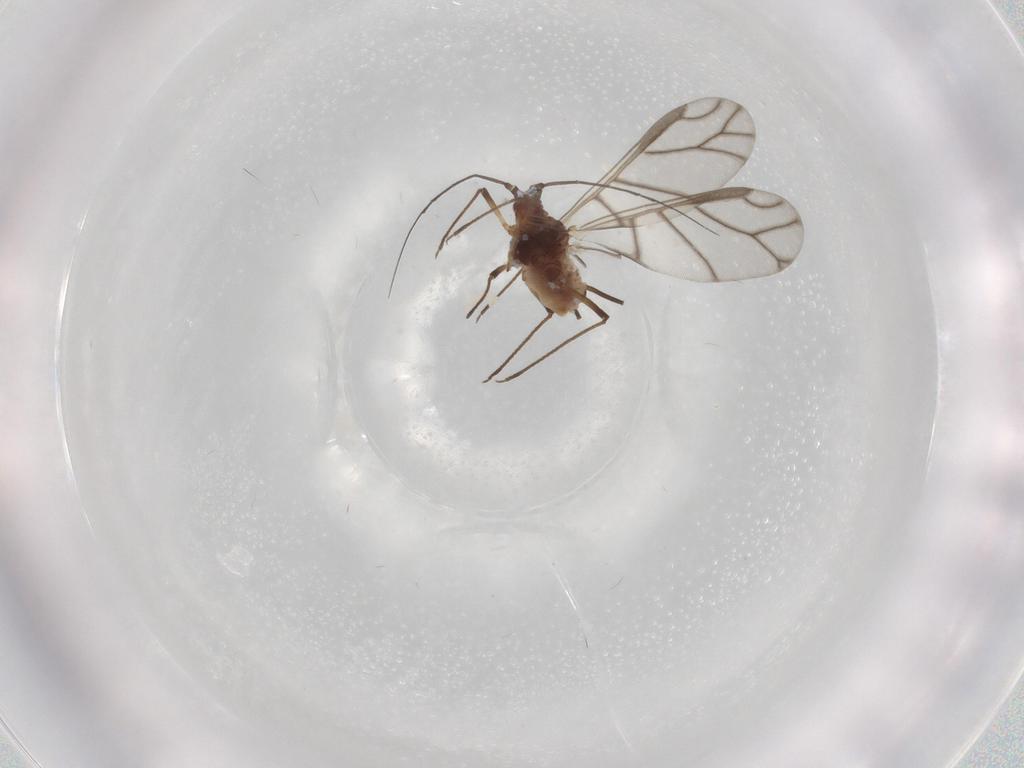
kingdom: Animalia
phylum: Arthropoda
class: Insecta
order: Hemiptera
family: Aphididae
